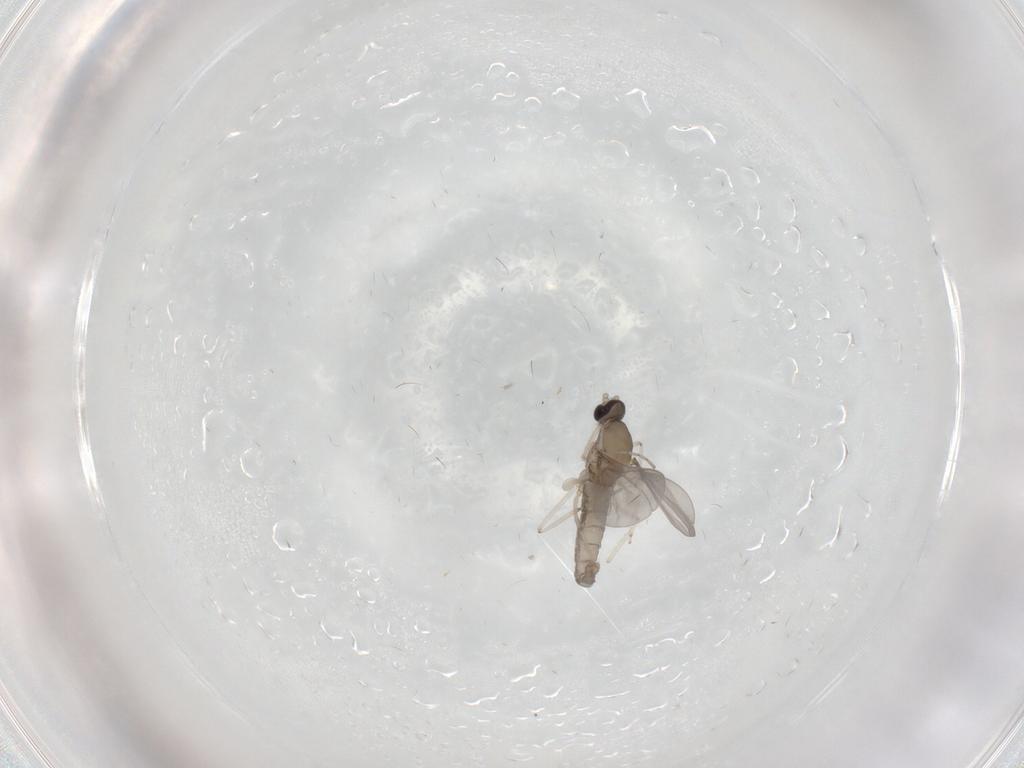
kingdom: Animalia
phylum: Arthropoda
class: Insecta
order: Diptera
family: Cecidomyiidae
